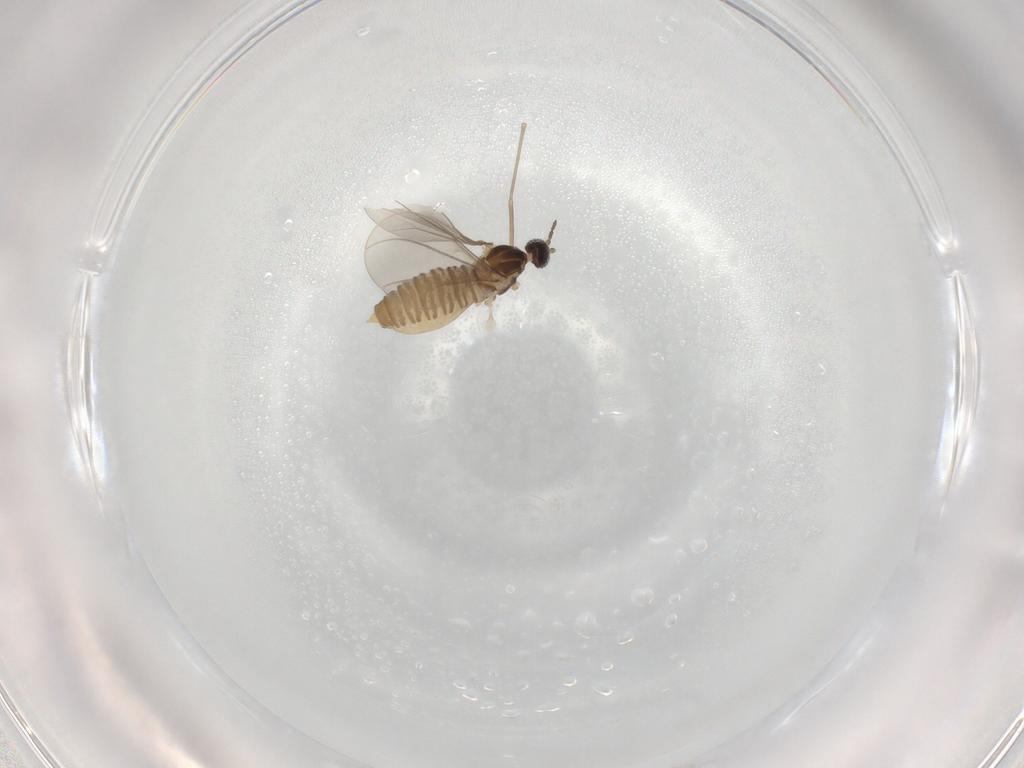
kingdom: Animalia
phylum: Arthropoda
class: Insecta
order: Diptera
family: Cecidomyiidae
